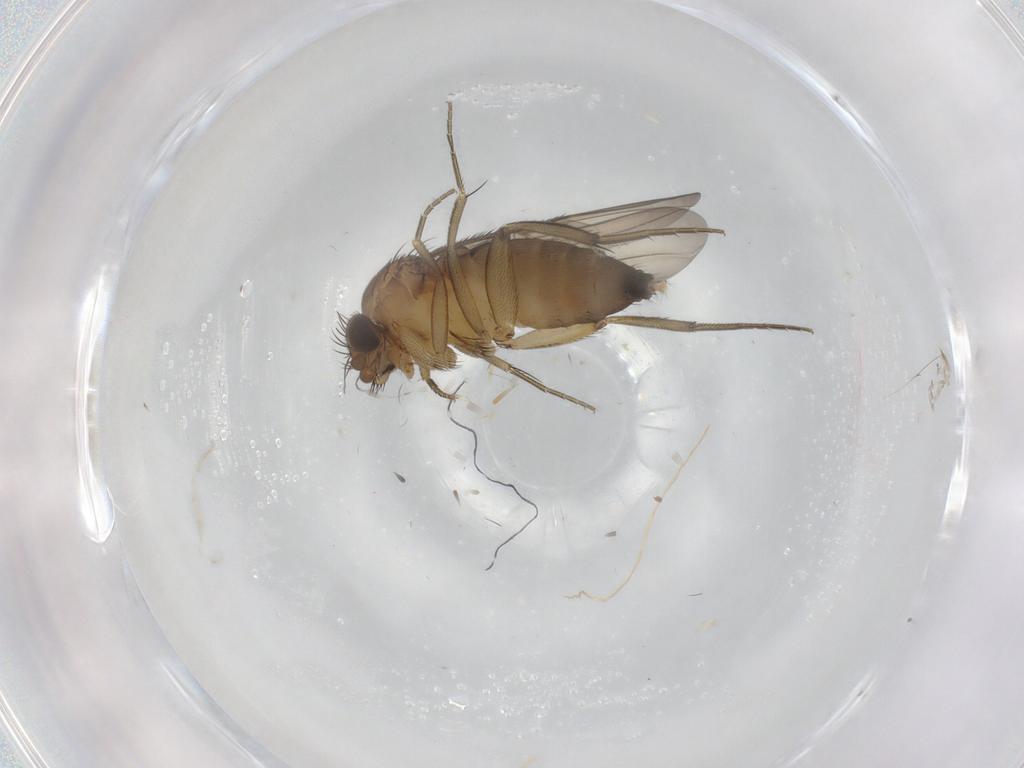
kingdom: Animalia
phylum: Arthropoda
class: Insecta
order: Diptera
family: Phoridae
